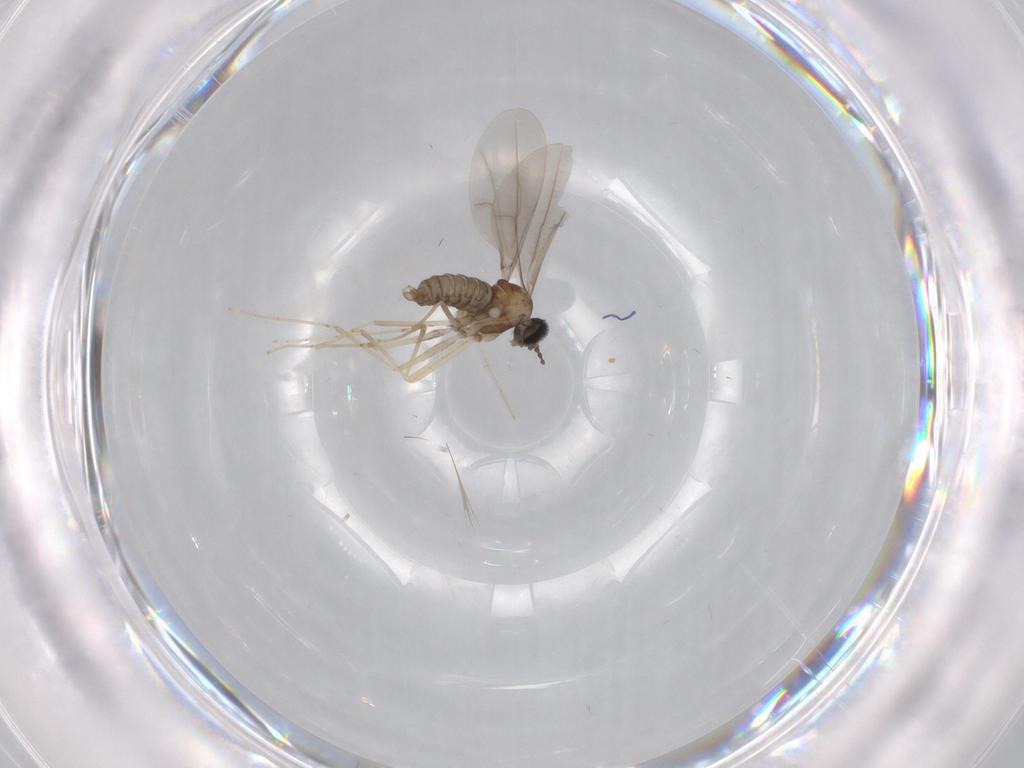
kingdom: Animalia
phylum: Arthropoda
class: Insecta
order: Diptera
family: Cecidomyiidae
